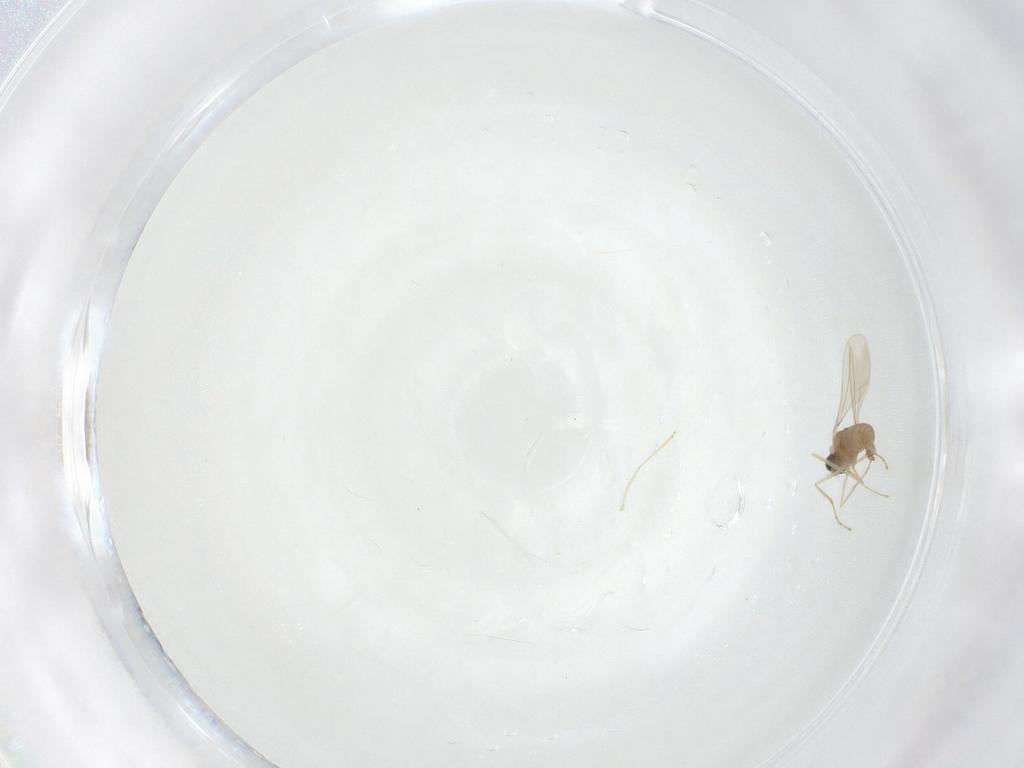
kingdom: Animalia
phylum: Arthropoda
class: Insecta
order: Diptera
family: Cecidomyiidae
